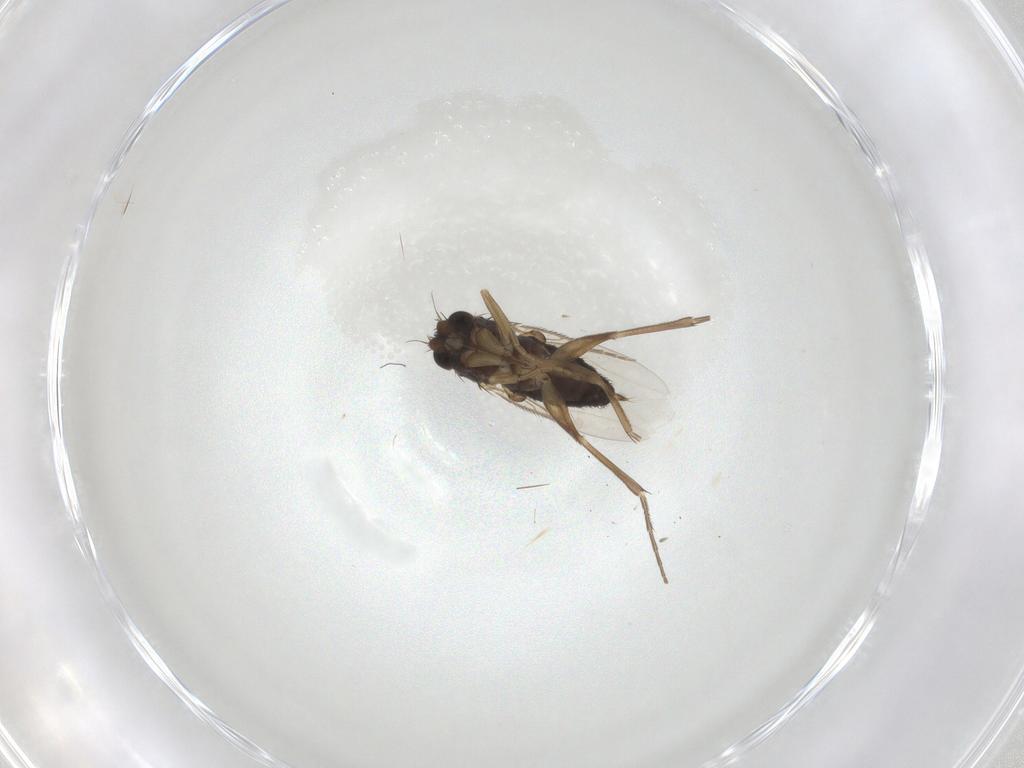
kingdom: Animalia
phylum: Arthropoda
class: Insecta
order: Diptera
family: Phoridae
